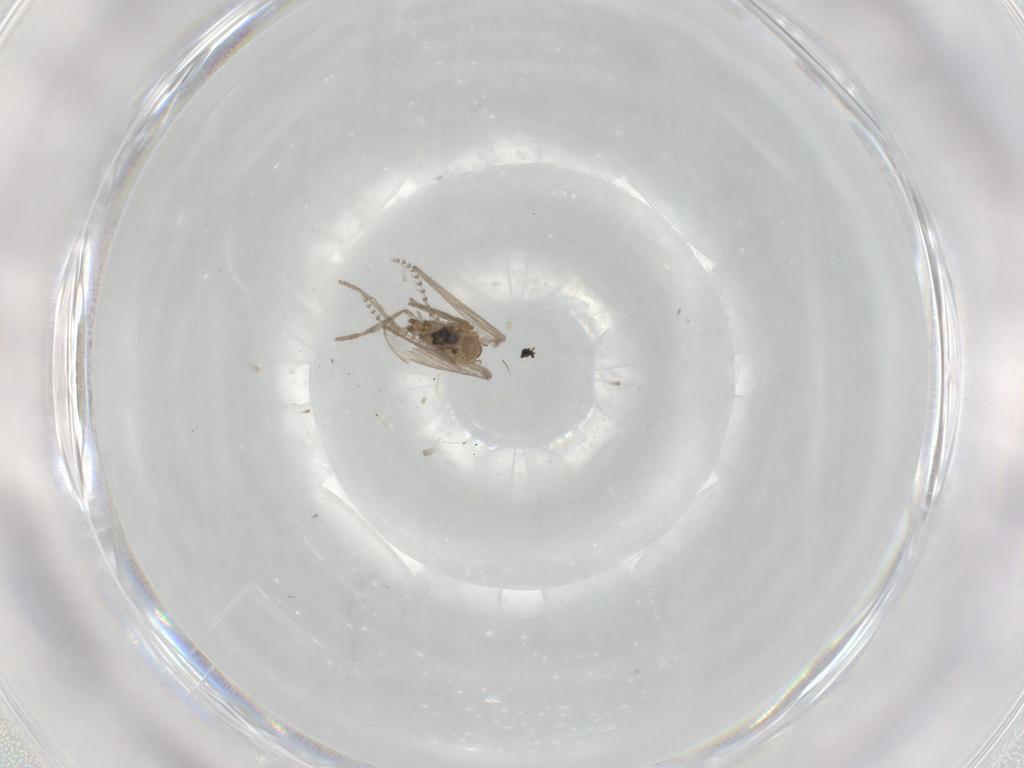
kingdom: Animalia
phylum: Arthropoda
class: Insecta
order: Diptera
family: Psychodidae
